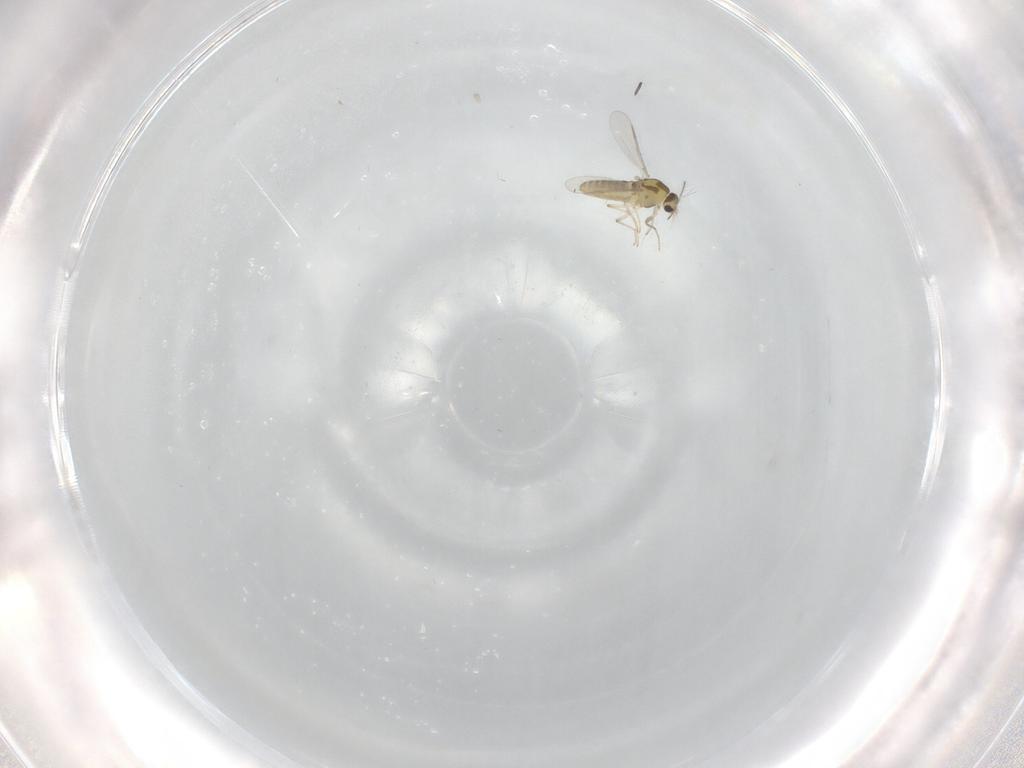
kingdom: Animalia
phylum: Arthropoda
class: Insecta
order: Diptera
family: Chironomidae
